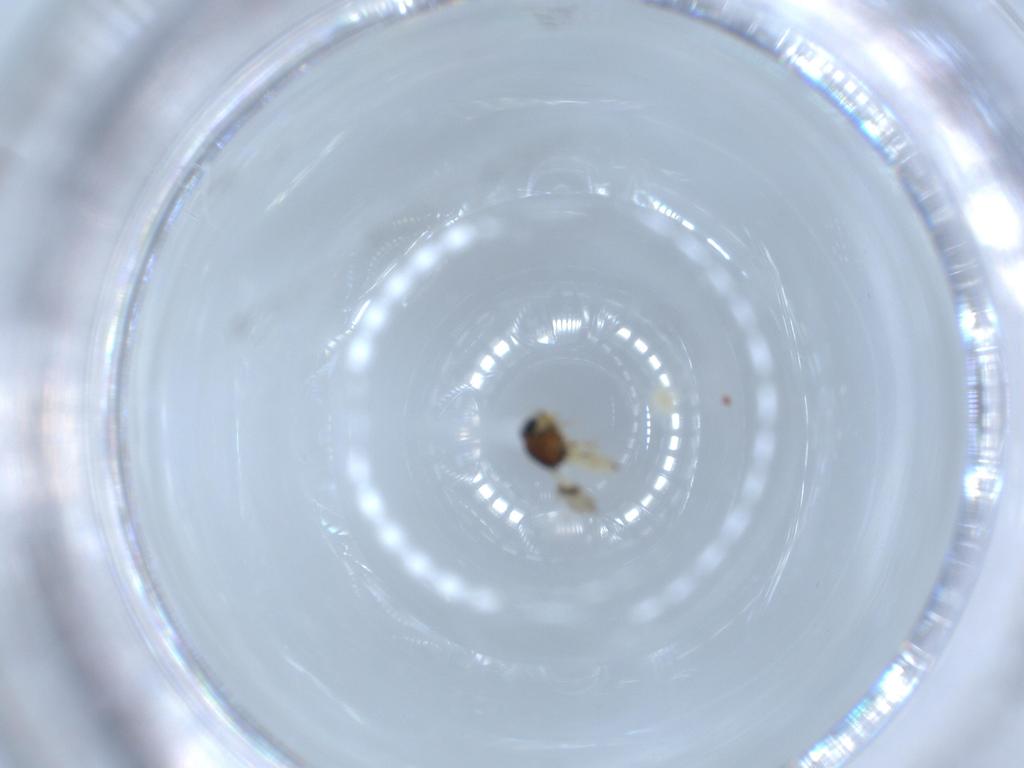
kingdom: Animalia
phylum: Arthropoda
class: Insecta
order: Hymenoptera
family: Scelionidae
